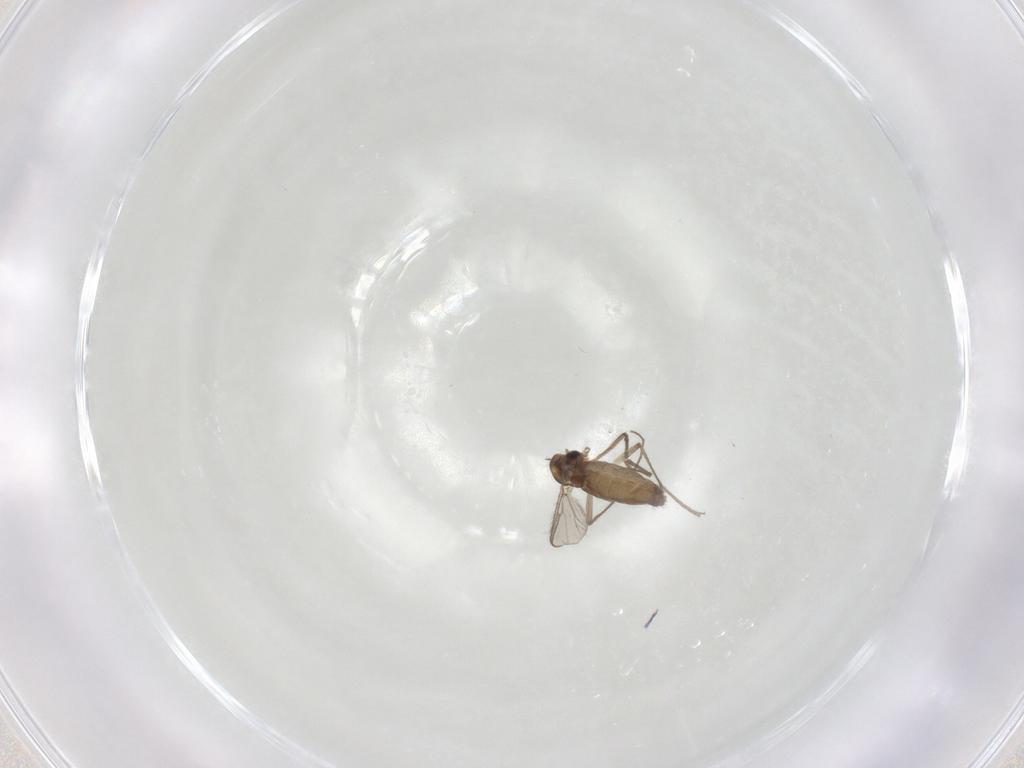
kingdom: Animalia
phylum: Arthropoda
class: Insecta
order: Diptera
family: Chironomidae
